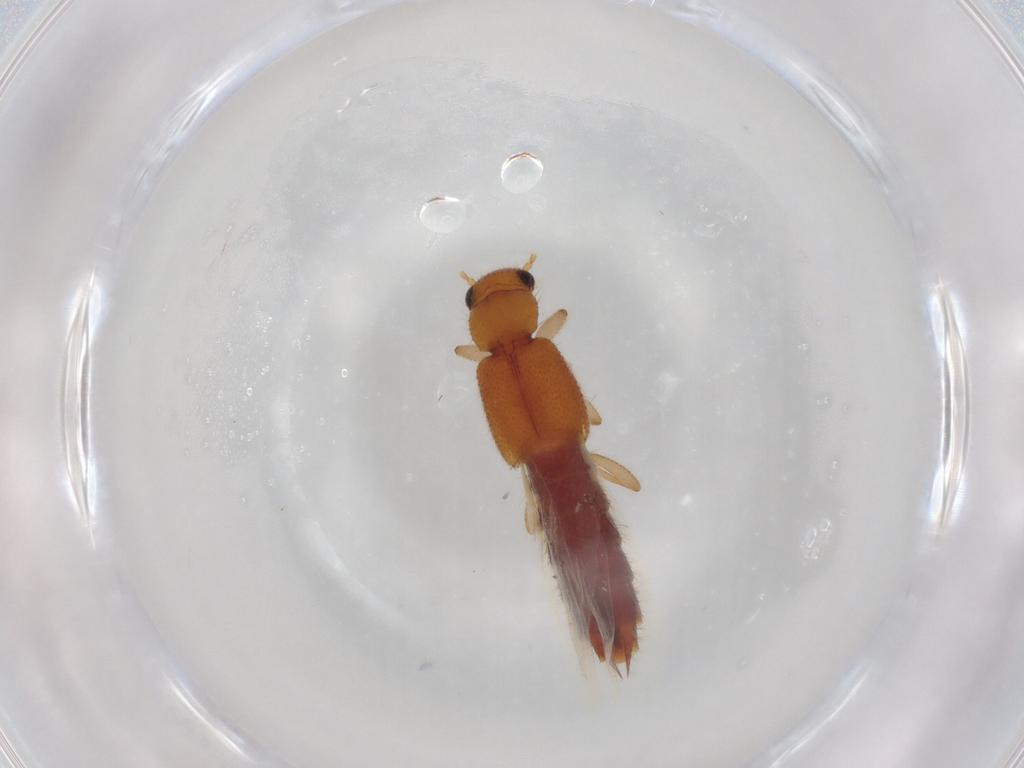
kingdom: Animalia
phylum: Arthropoda
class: Insecta
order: Coleoptera
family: Staphylinidae
